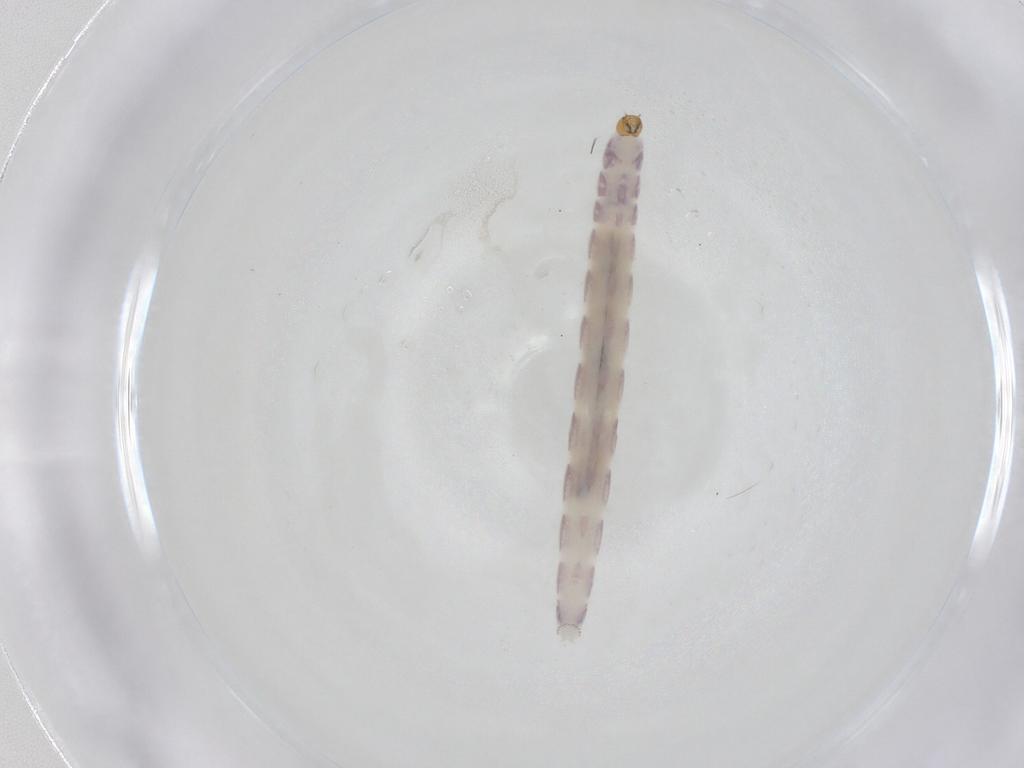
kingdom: Animalia
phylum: Arthropoda
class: Insecta
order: Diptera
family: Chironomidae
